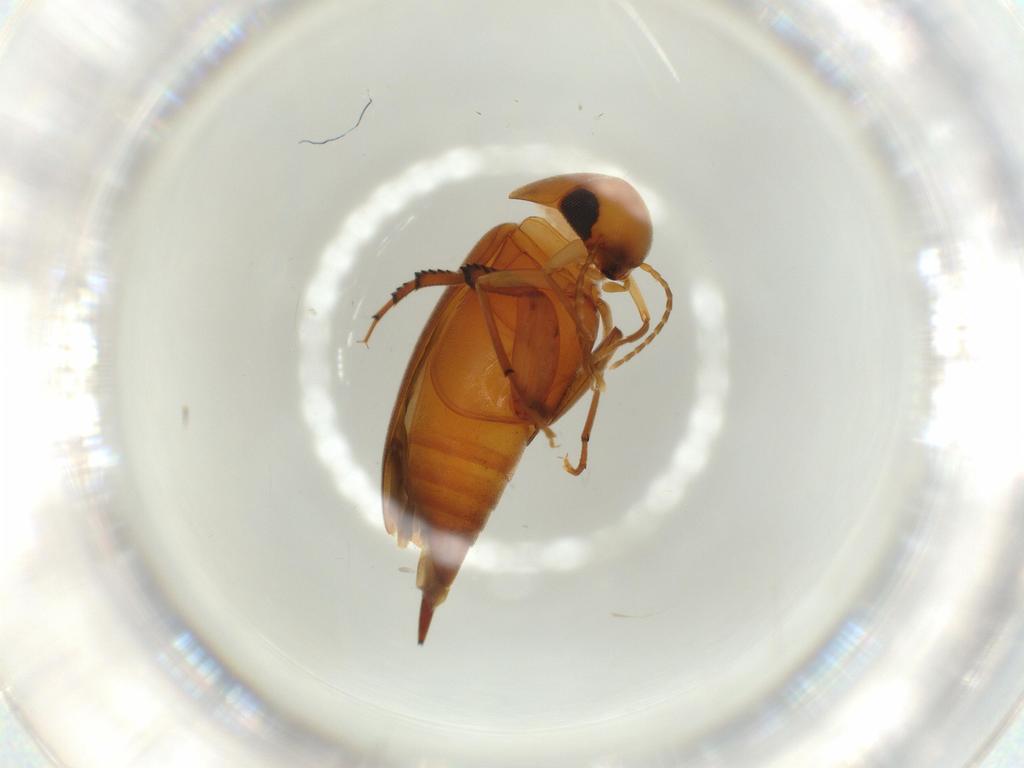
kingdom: Animalia
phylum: Arthropoda
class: Insecta
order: Coleoptera
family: Mordellidae
